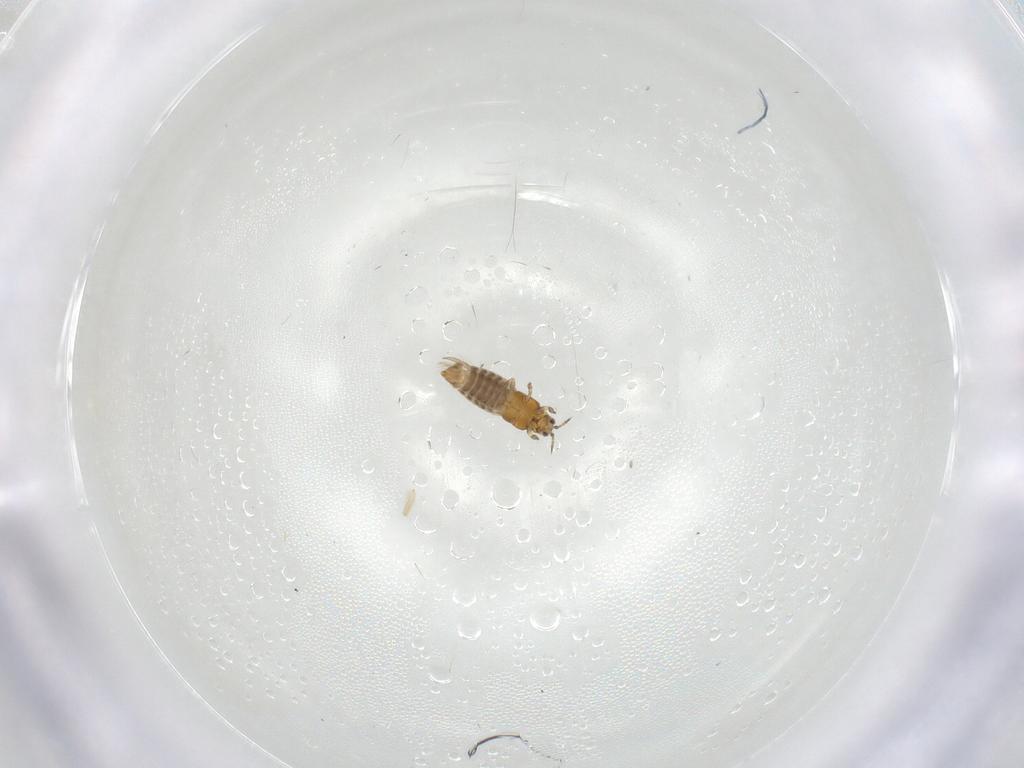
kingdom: Animalia
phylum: Arthropoda
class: Insecta
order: Thysanoptera
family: Thripidae
